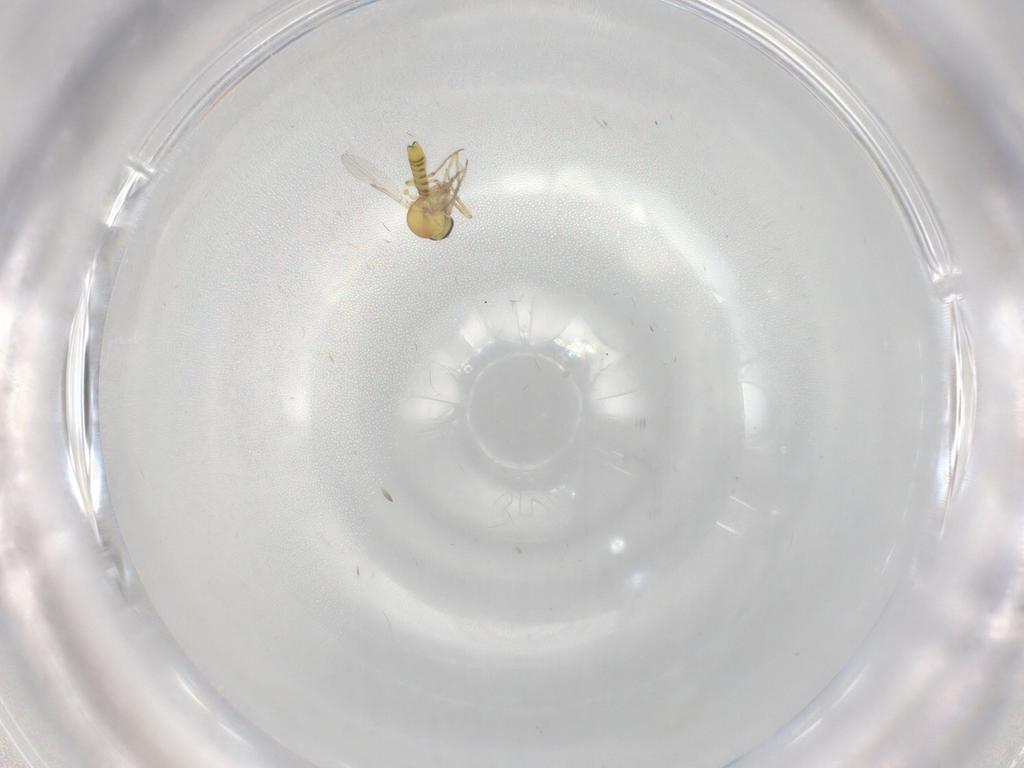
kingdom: Animalia
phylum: Arthropoda
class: Insecta
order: Diptera
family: Ceratopogonidae
